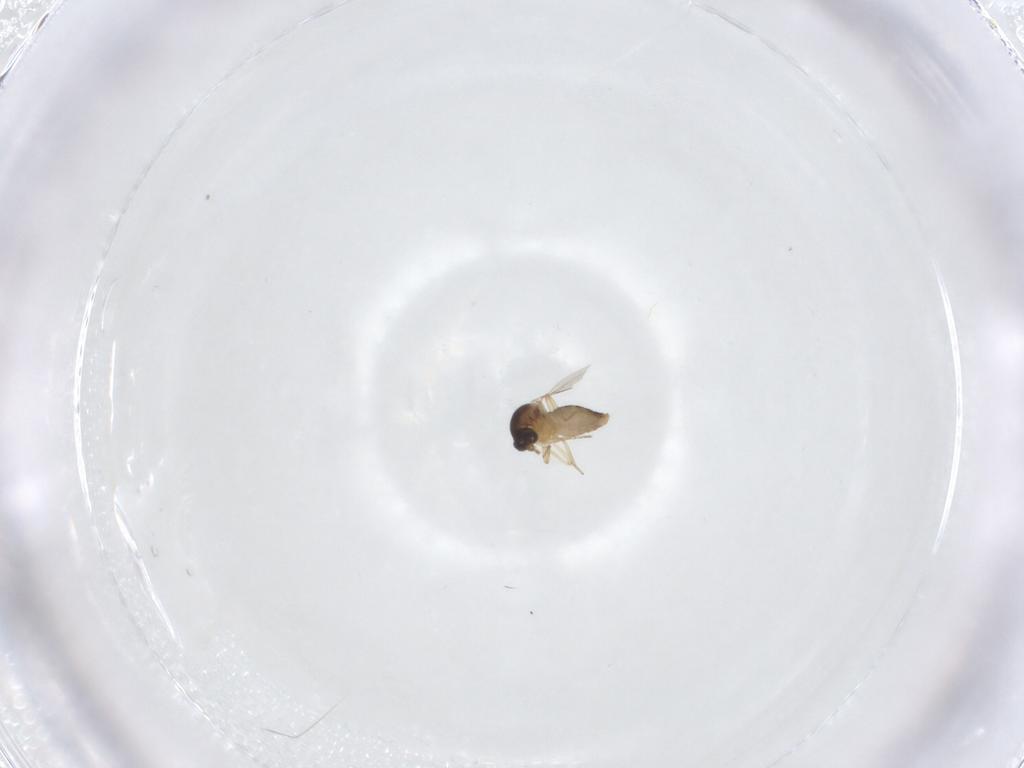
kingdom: Animalia
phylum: Arthropoda
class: Insecta
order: Diptera
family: Ceratopogonidae
